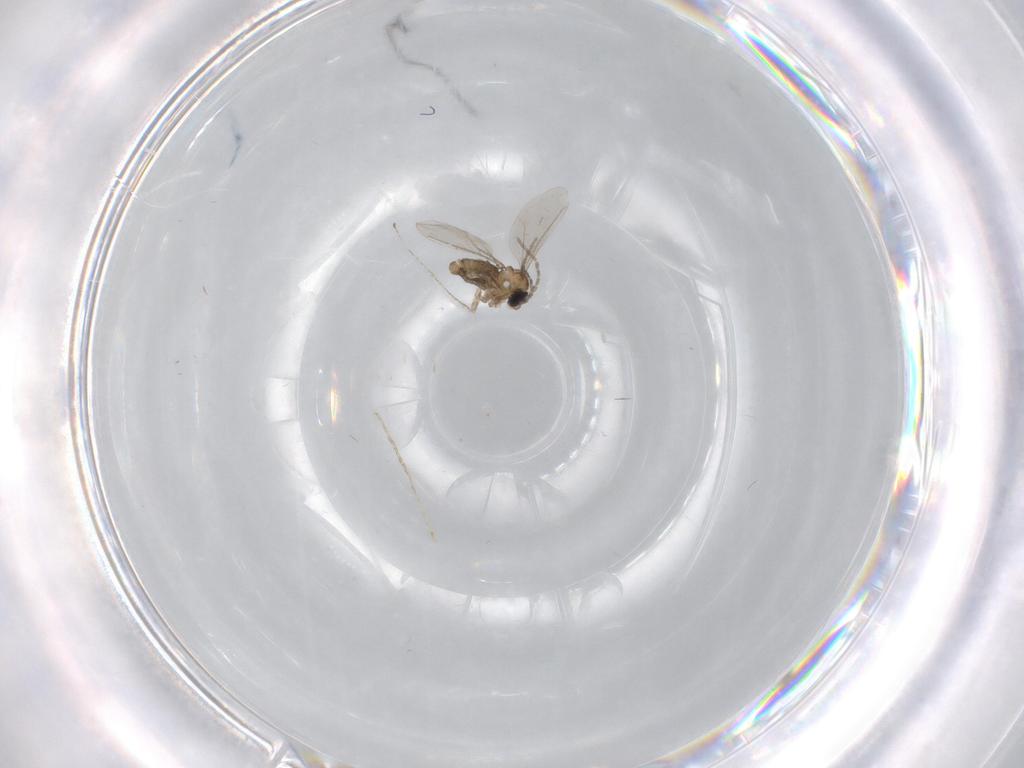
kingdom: Animalia
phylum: Arthropoda
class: Insecta
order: Diptera
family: Cecidomyiidae
